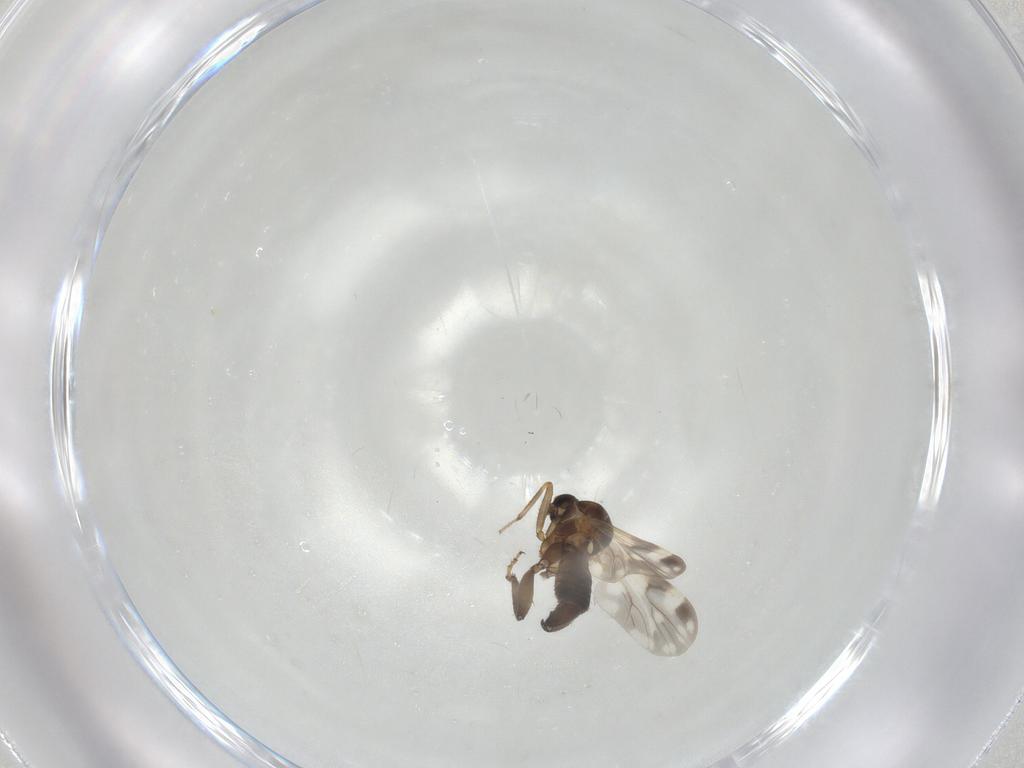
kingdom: Animalia
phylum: Arthropoda
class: Insecta
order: Diptera
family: Ceratopogonidae
